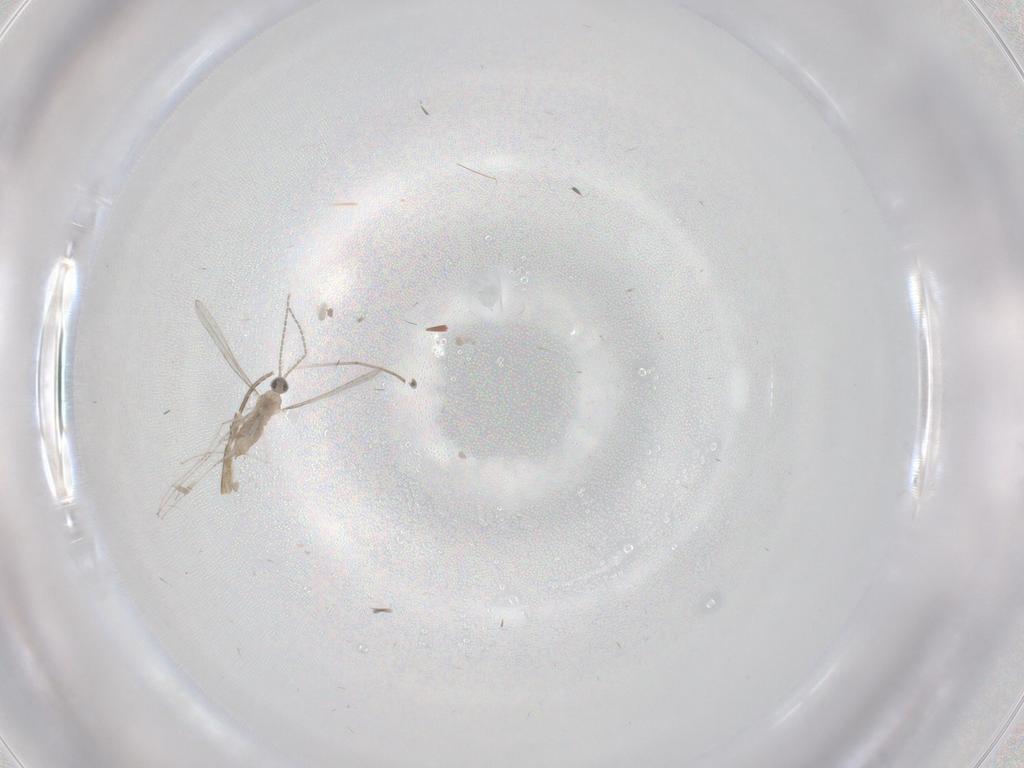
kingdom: Animalia
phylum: Arthropoda
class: Insecta
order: Diptera
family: Cecidomyiidae
